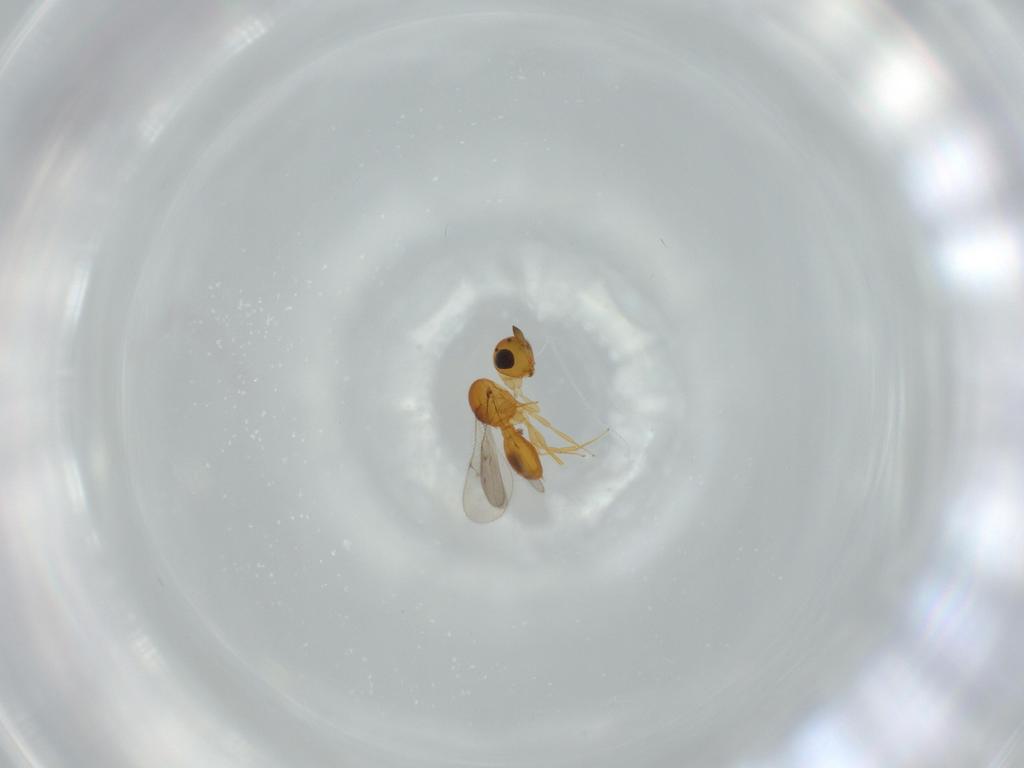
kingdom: Animalia
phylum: Arthropoda
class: Insecta
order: Hymenoptera
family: Scelionidae
